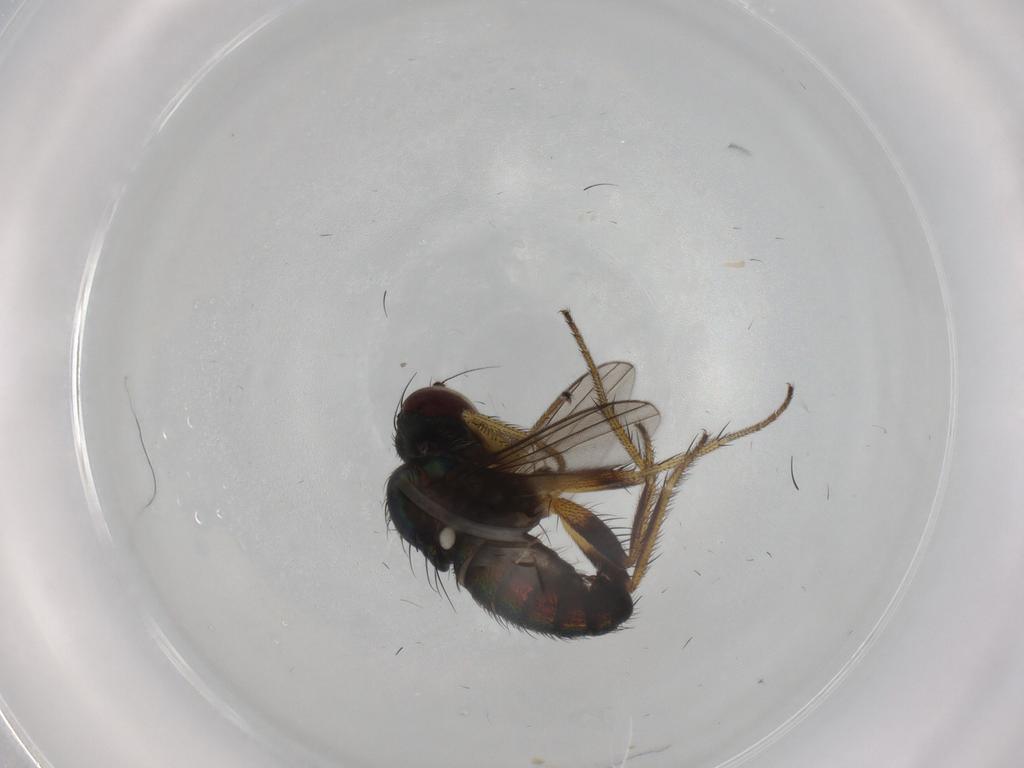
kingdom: Animalia
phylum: Arthropoda
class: Insecta
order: Diptera
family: Dolichopodidae
